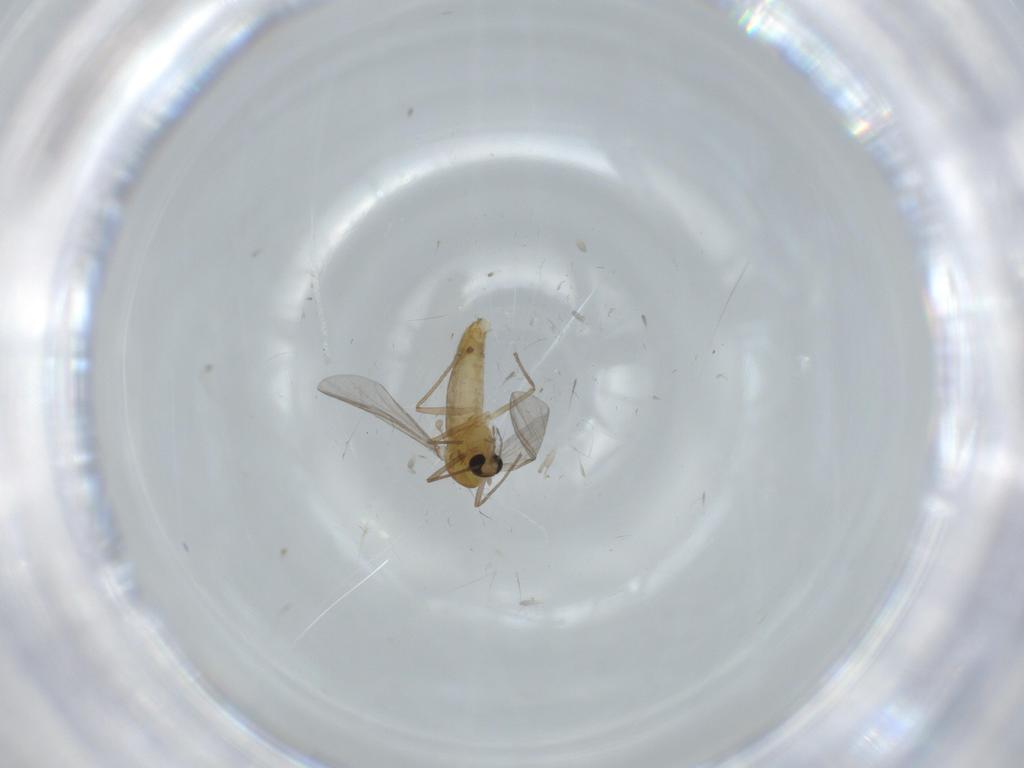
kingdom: Animalia
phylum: Arthropoda
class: Insecta
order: Diptera
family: Chironomidae
